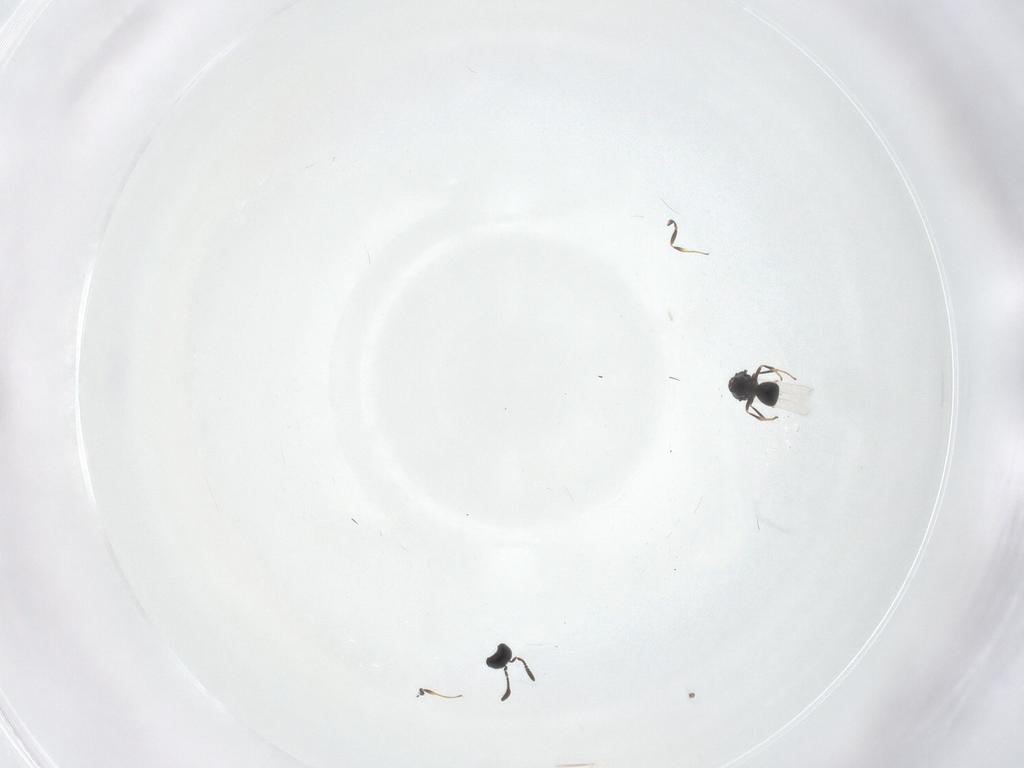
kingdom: Animalia
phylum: Arthropoda
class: Insecta
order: Hymenoptera
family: Scelionidae
